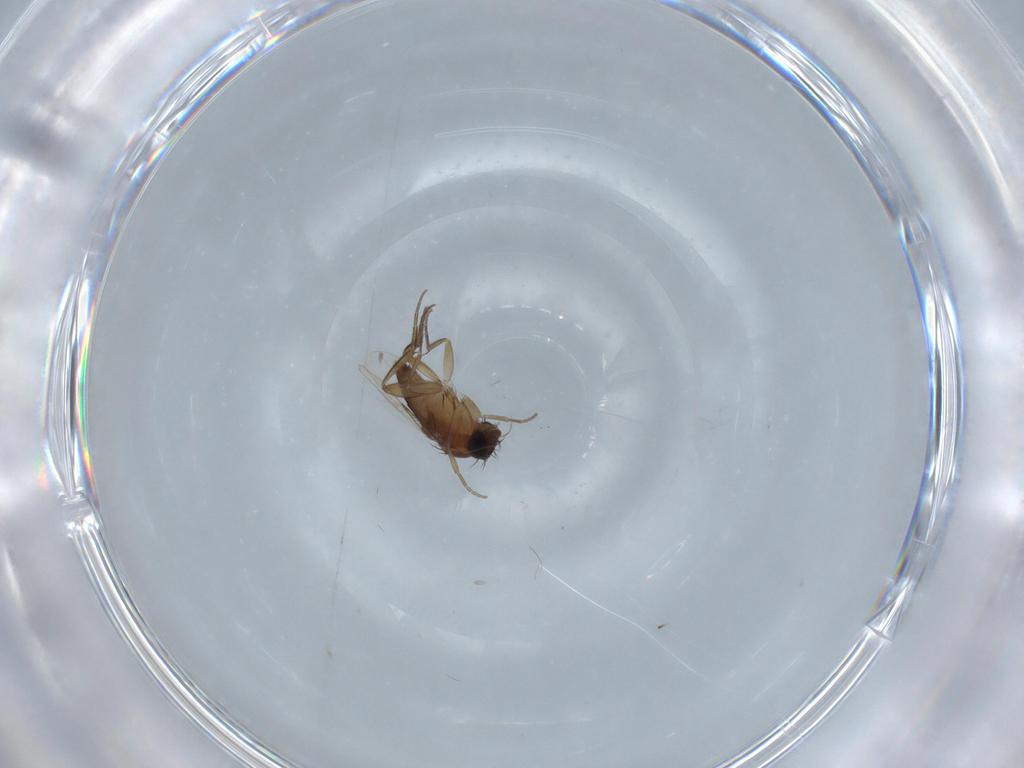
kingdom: Animalia
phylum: Arthropoda
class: Insecta
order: Diptera
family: Phoridae
